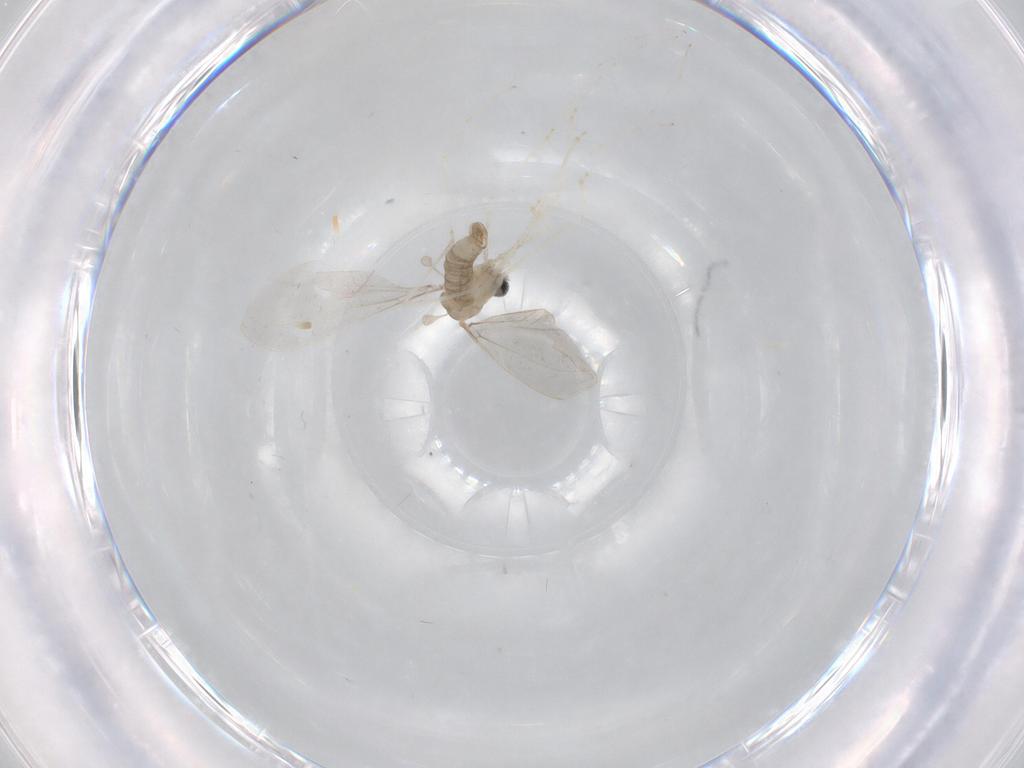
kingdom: Animalia
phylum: Arthropoda
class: Insecta
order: Diptera
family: Cecidomyiidae
